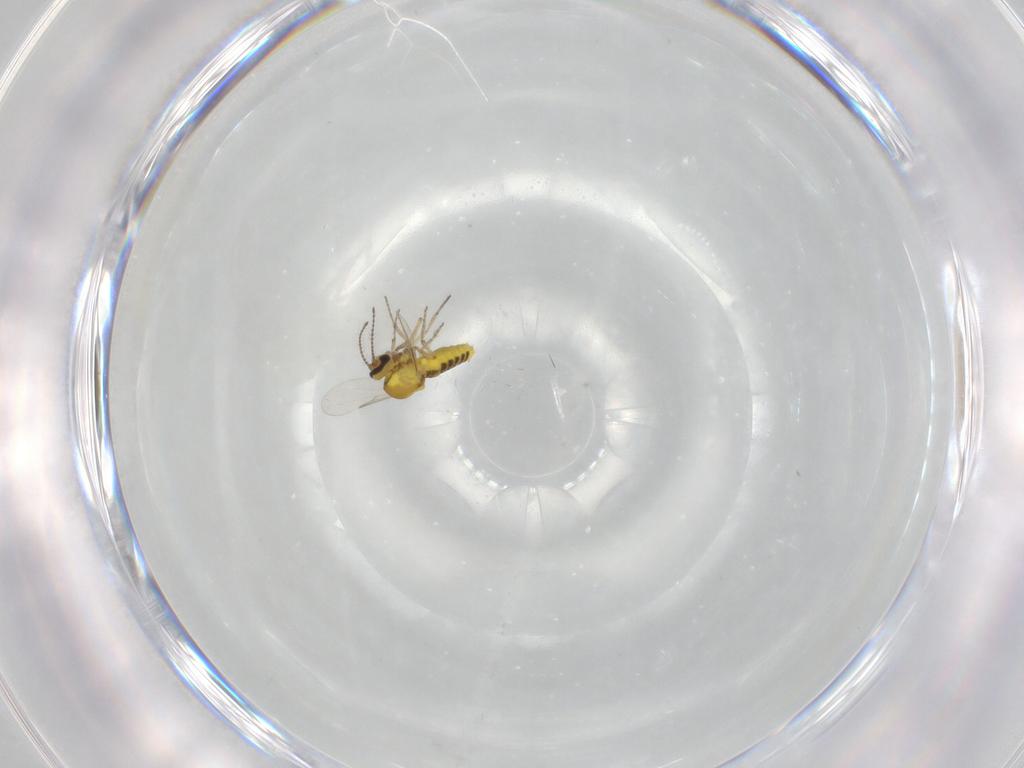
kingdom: Animalia
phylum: Arthropoda
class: Insecta
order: Diptera
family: Ceratopogonidae
